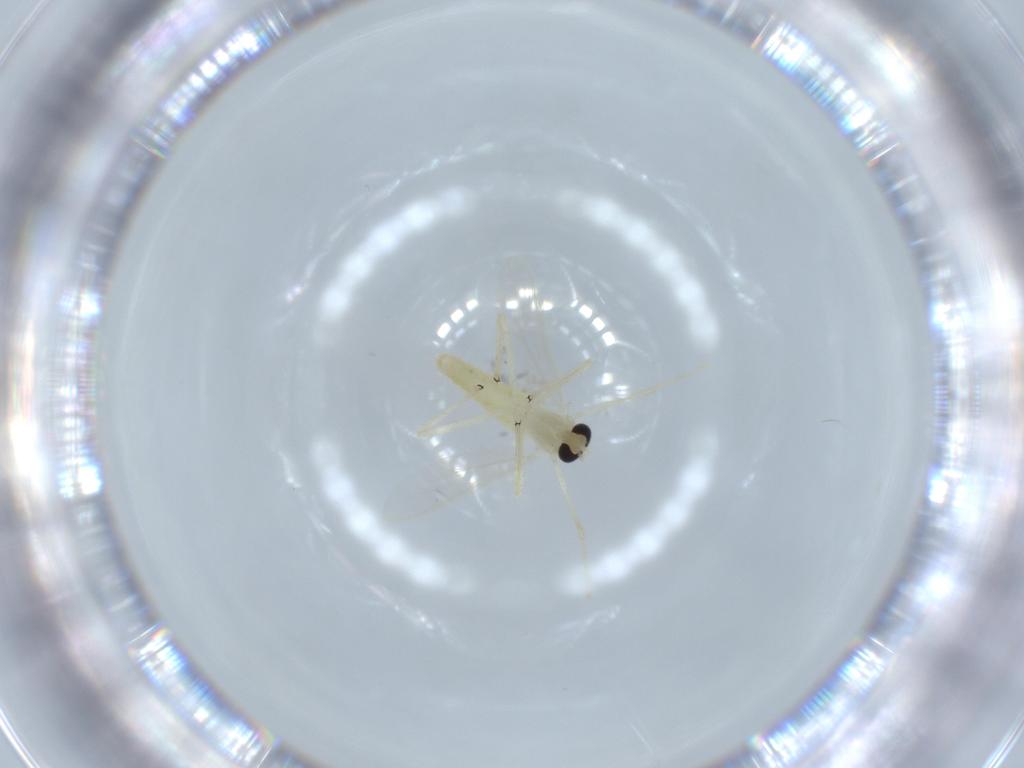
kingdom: Animalia
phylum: Arthropoda
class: Insecta
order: Diptera
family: Chironomidae
